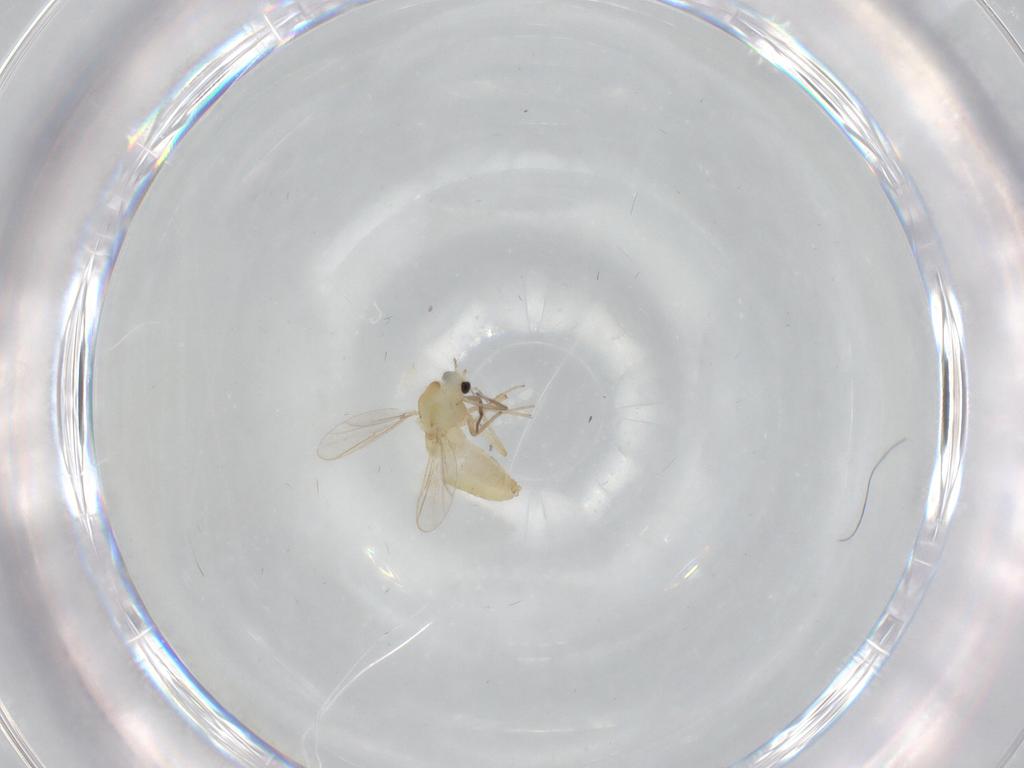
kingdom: Animalia
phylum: Arthropoda
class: Insecta
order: Diptera
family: Chironomidae
